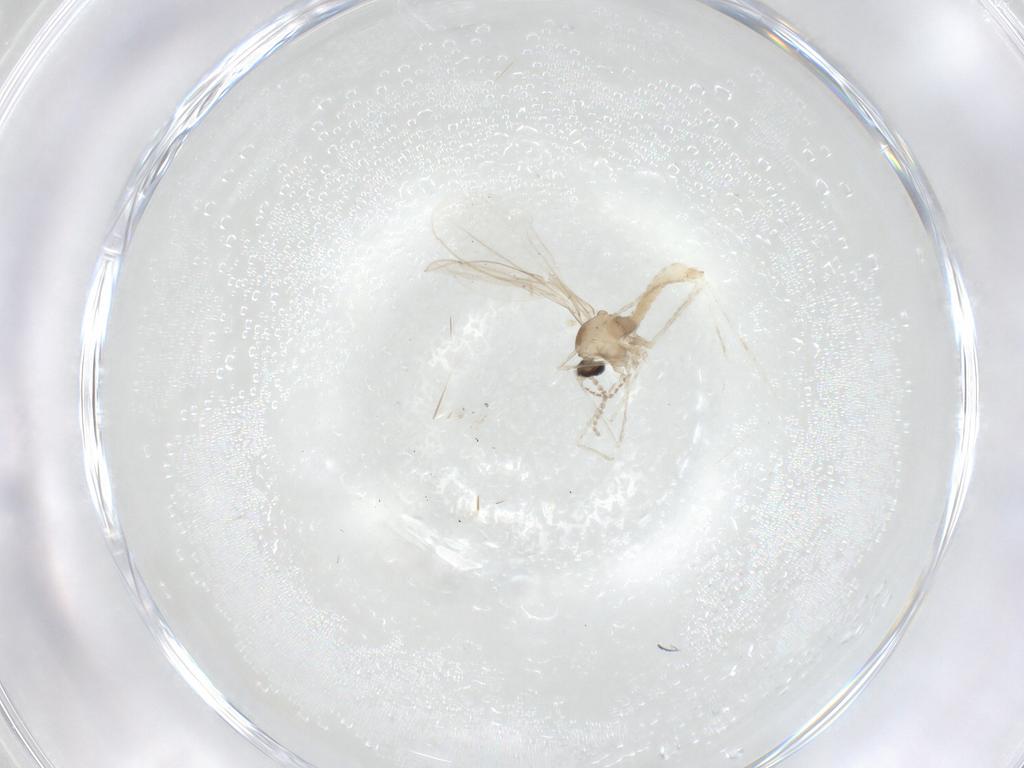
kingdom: Animalia
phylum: Arthropoda
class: Insecta
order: Diptera
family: Cecidomyiidae
